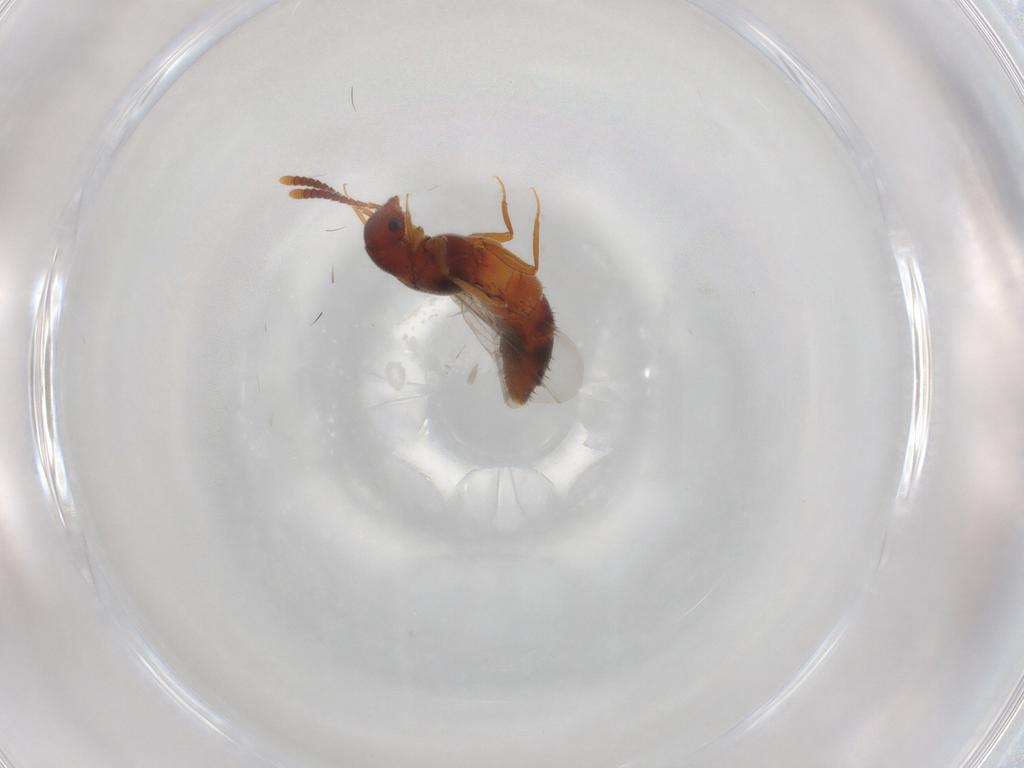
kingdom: Animalia
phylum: Arthropoda
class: Insecta
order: Coleoptera
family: Staphylinidae
